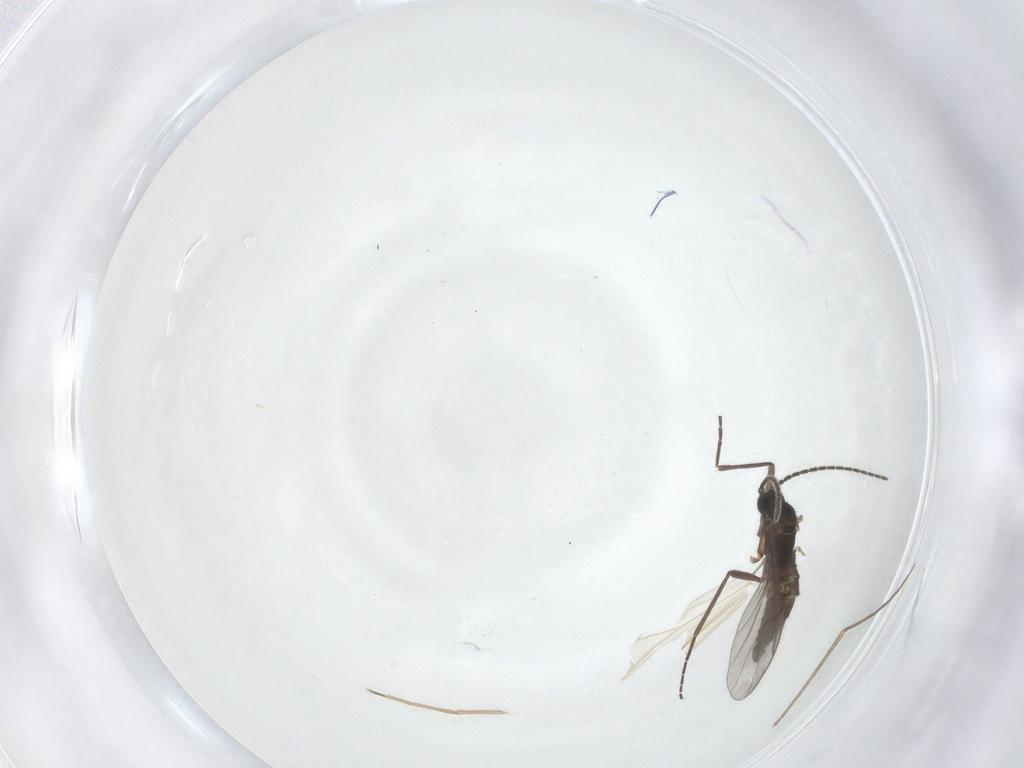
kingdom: Animalia
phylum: Arthropoda
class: Insecta
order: Diptera
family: Sciaridae
